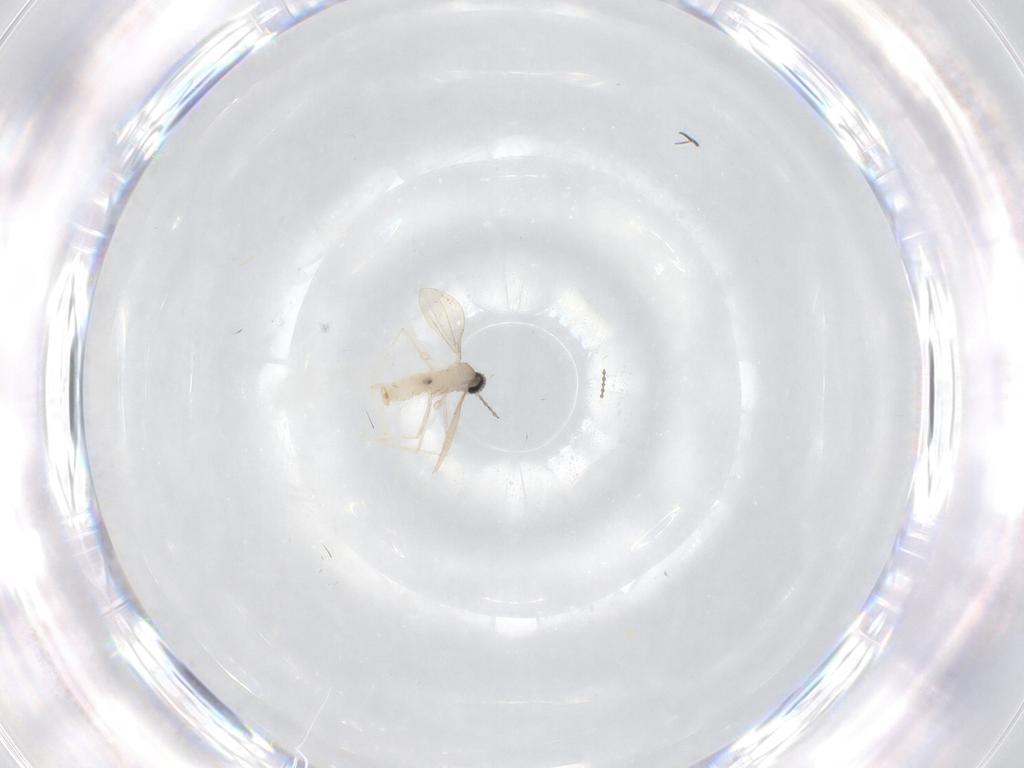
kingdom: Animalia
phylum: Arthropoda
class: Insecta
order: Diptera
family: Cecidomyiidae
